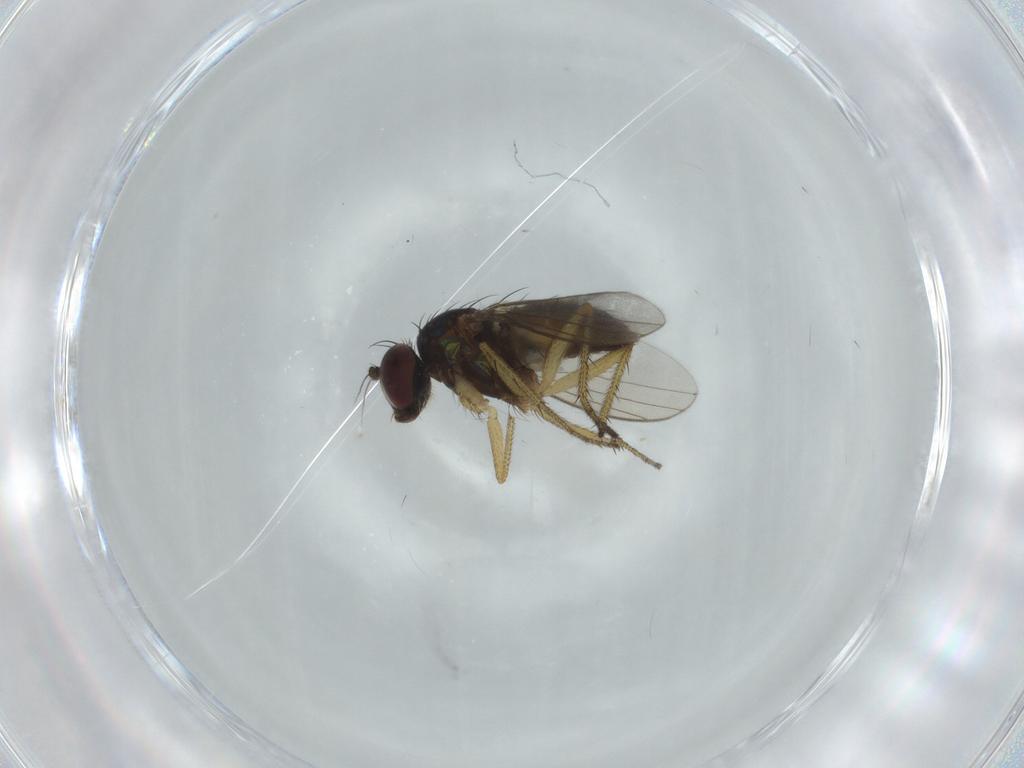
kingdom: Animalia
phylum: Arthropoda
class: Insecta
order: Diptera
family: Dolichopodidae
